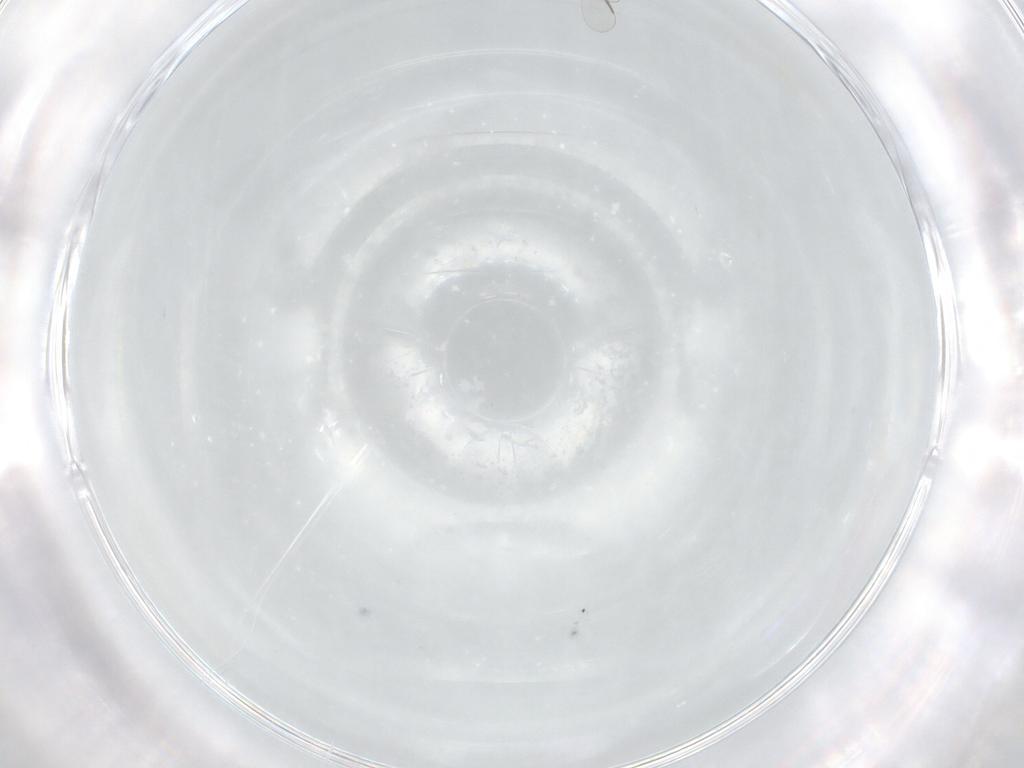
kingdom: Animalia
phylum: Arthropoda
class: Insecta
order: Diptera
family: Chironomidae
